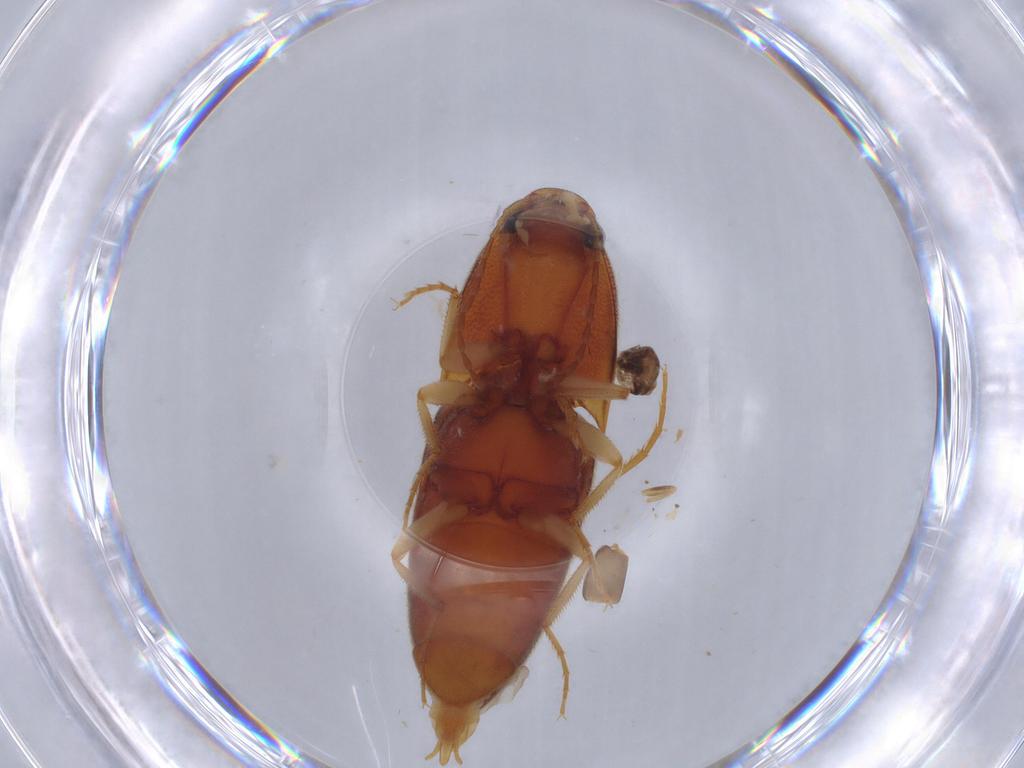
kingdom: Animalia
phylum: Arthropoda
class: Insecta
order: Coleoptera
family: Elateridae
